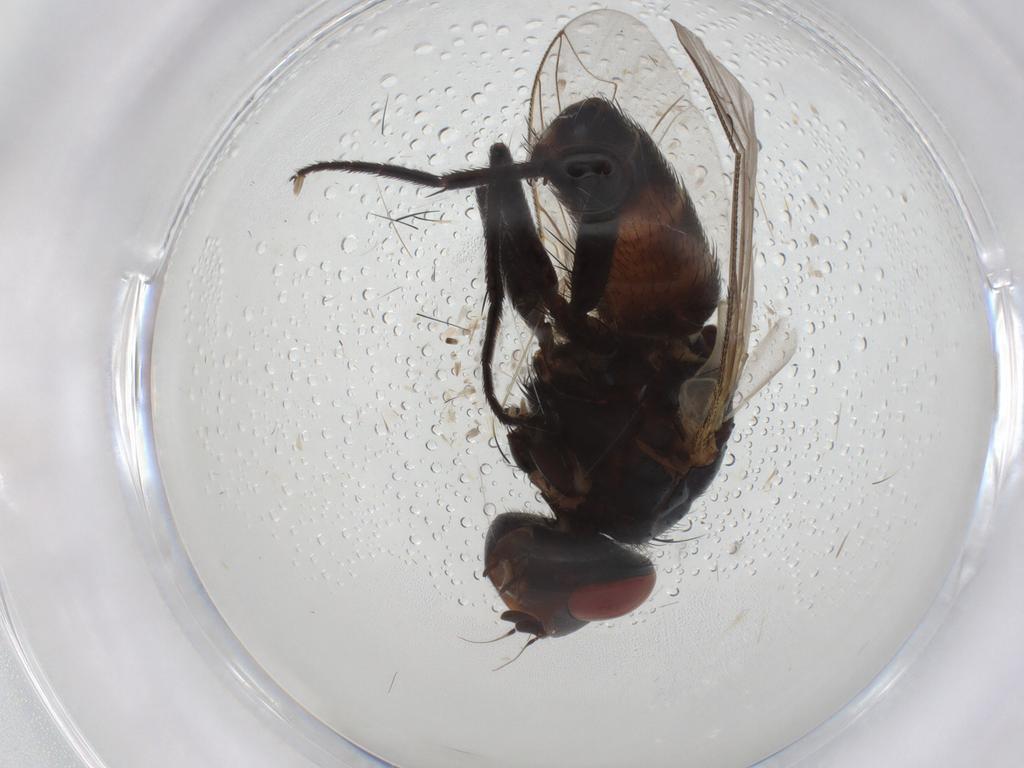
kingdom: Animalia
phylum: Arthropoda
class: Insecta
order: Diptera
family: Sarcophagidae
